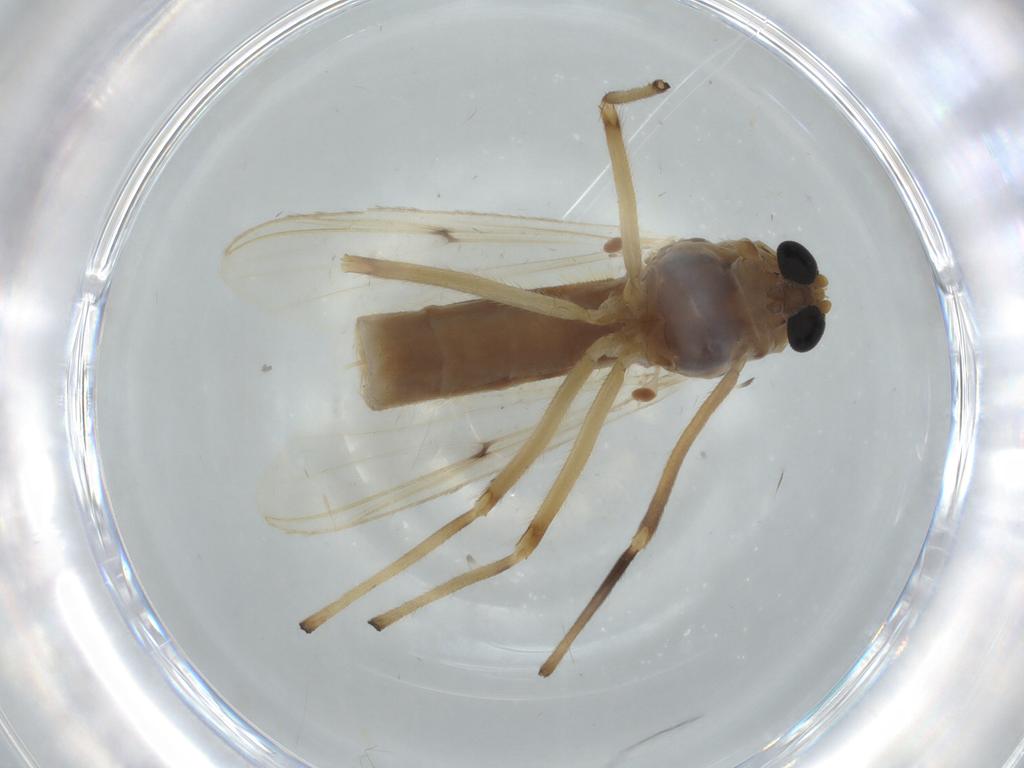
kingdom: Animalia
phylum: Arthropoda
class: Insecta
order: Diptera
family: Chironomidae
